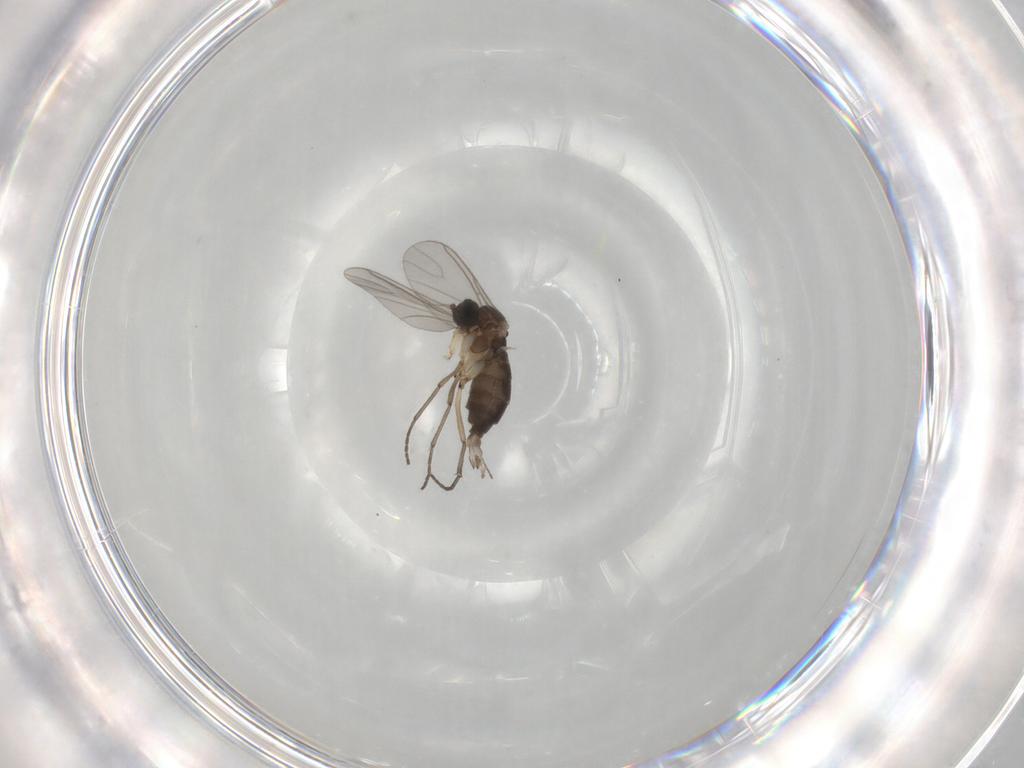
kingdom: Animalia
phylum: Arthropoda
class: Insecta
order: Diptera
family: Sciaridae
